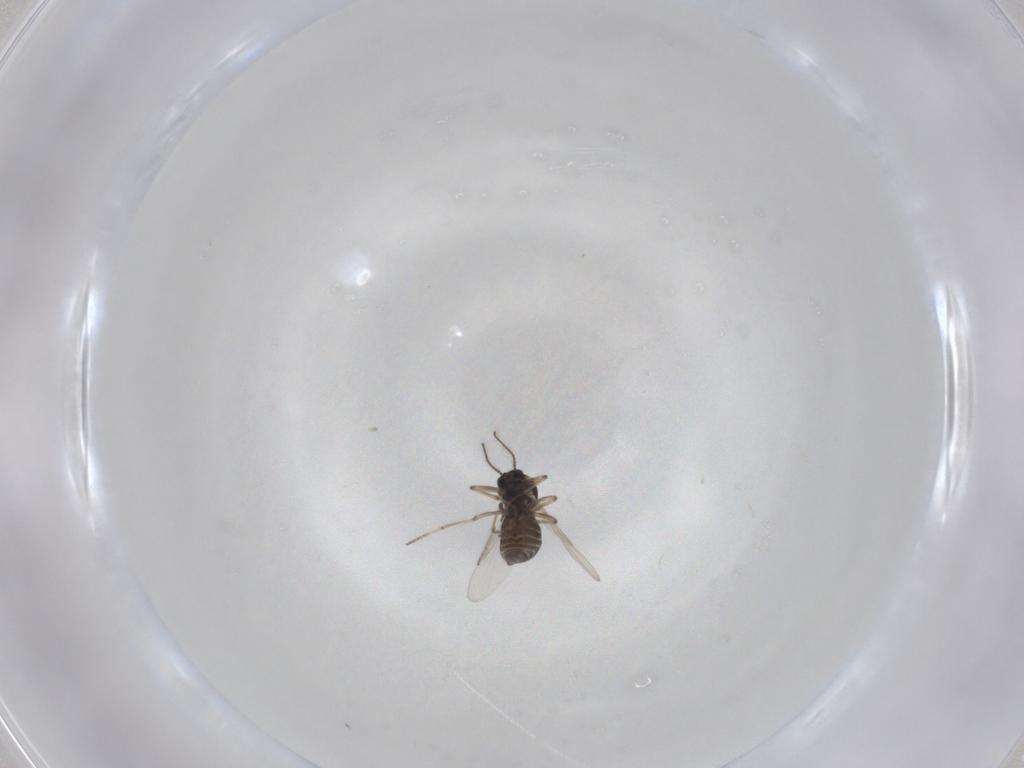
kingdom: Animalia
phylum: Arthropoda
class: Insecta
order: Diptera
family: Ceratopogonidae
